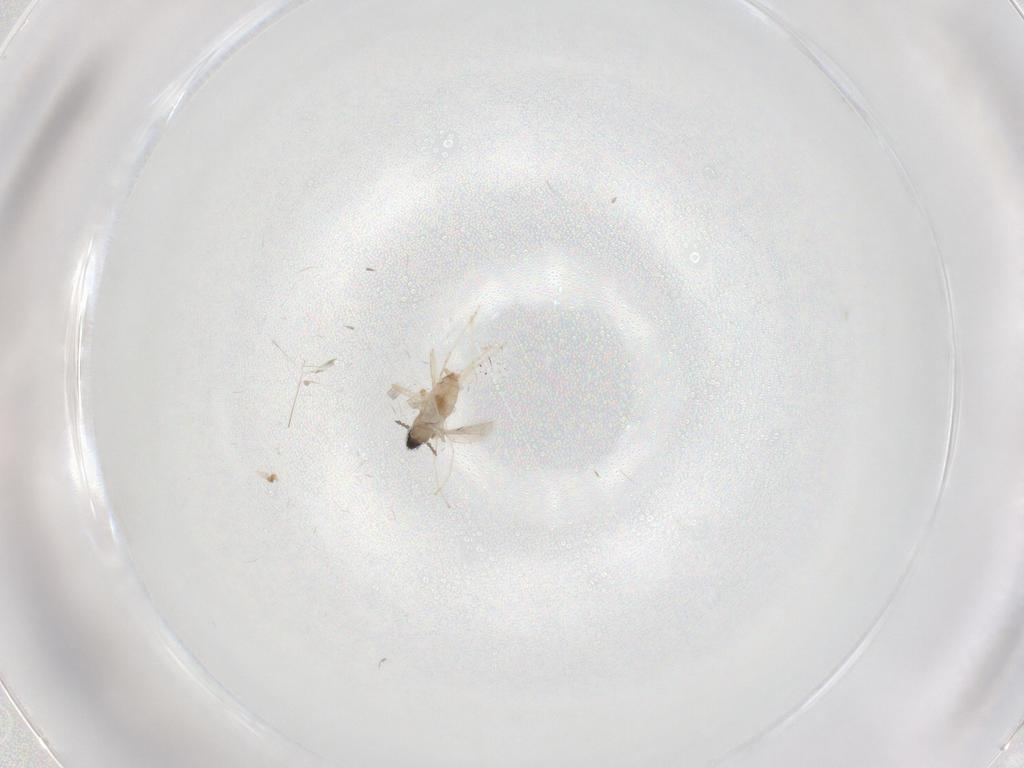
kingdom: Animalia
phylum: Arthropoda
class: Insecta
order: Diptera
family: Cecidomyiidae
